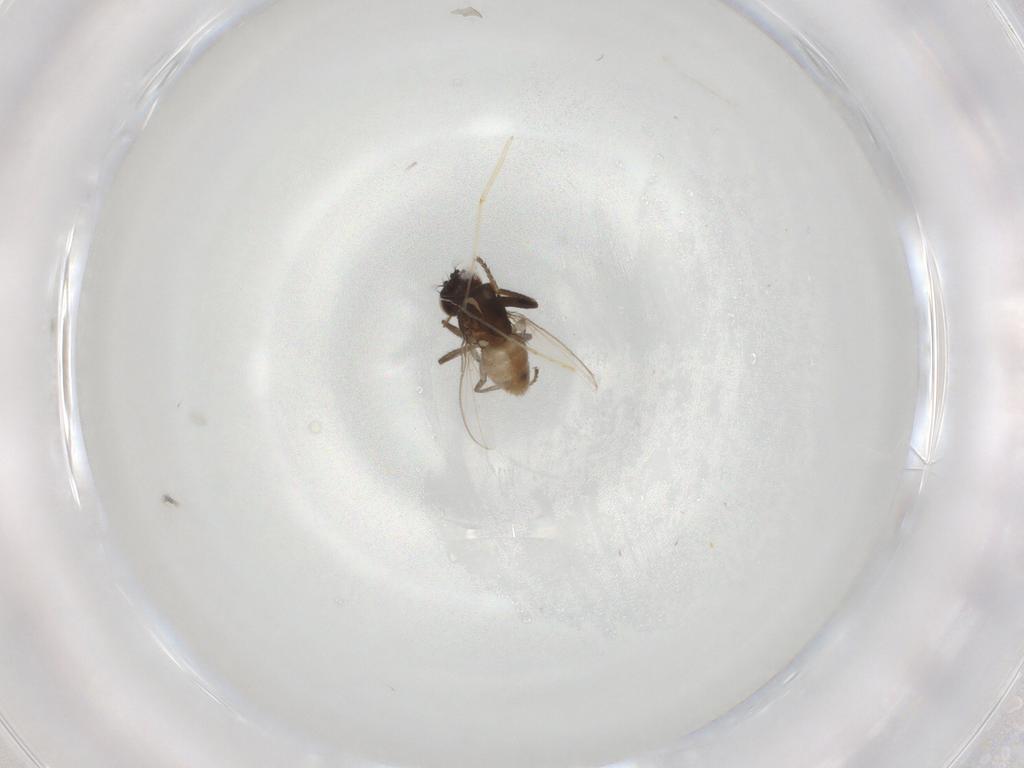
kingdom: Animalia
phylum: Arthropoda
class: Insecta
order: Diptera
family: Ephydridae
